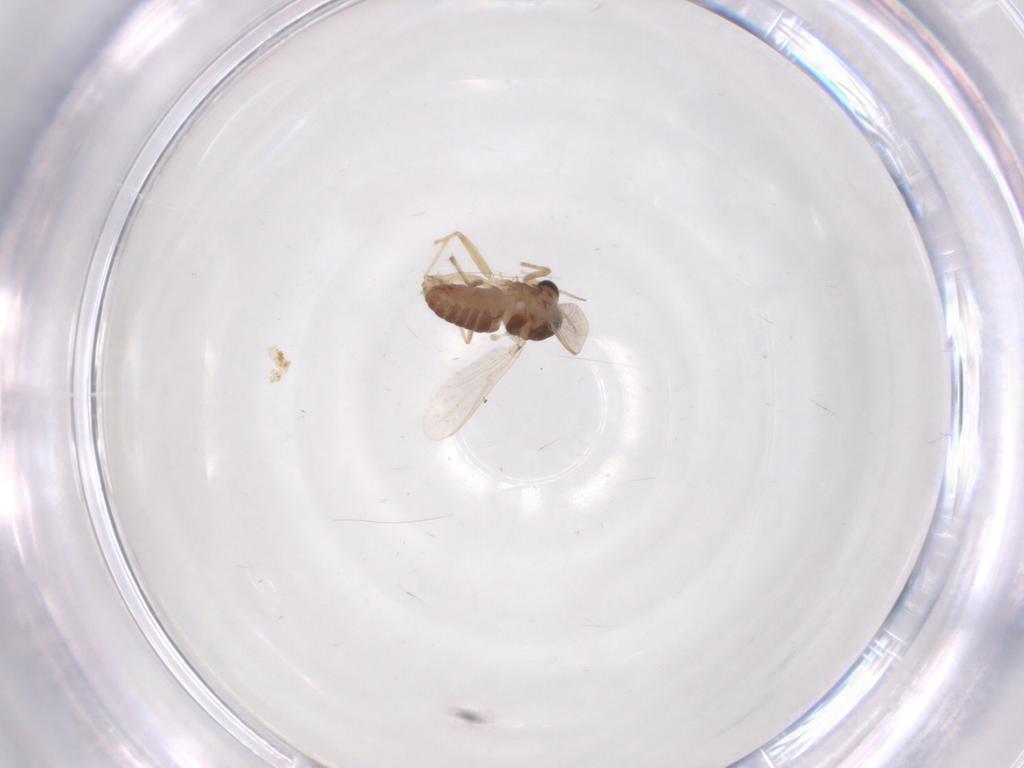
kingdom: Animalia
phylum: Arthropoda
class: Insecta
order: Diptera
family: Chironomidae
